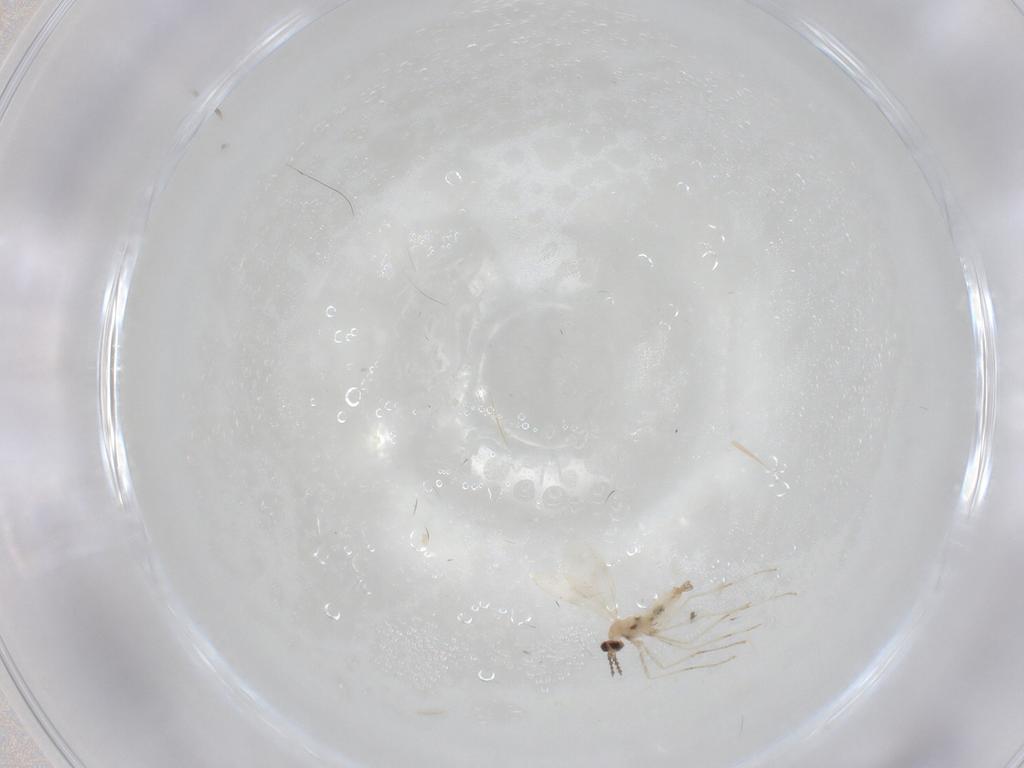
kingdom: Animalia
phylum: Arthropoda
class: Insecta
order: Diptera
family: Cecidomyiidae
